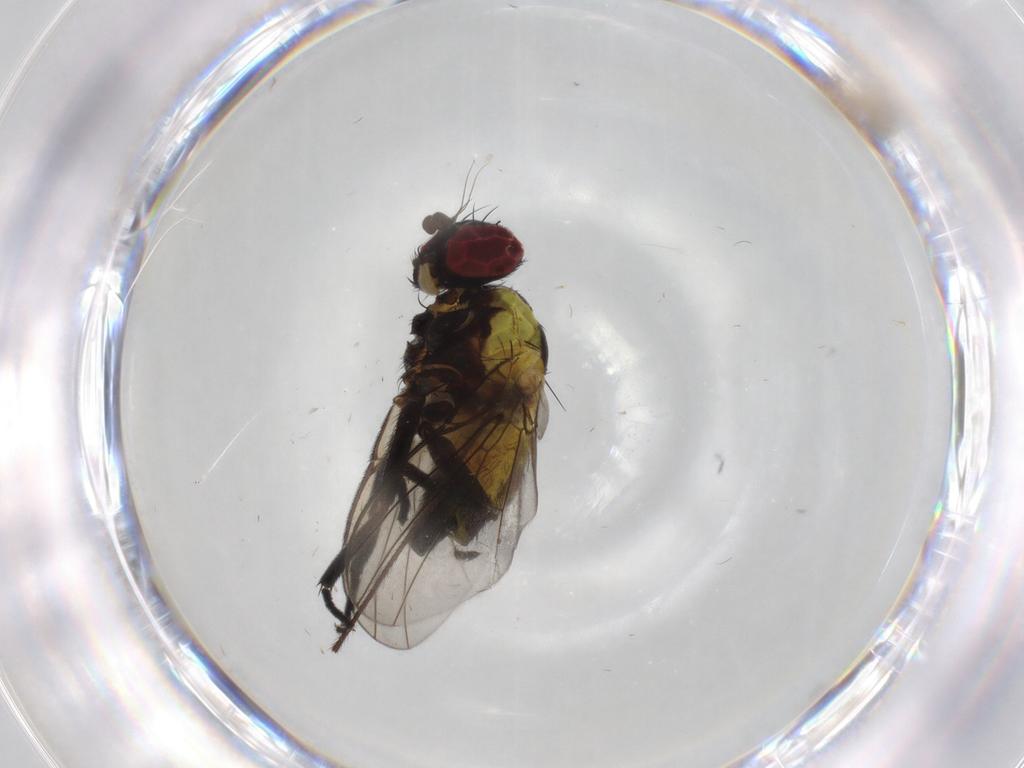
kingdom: Animalia
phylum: Arthropoda
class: Insecta
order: Diptera
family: Agromyzidae
